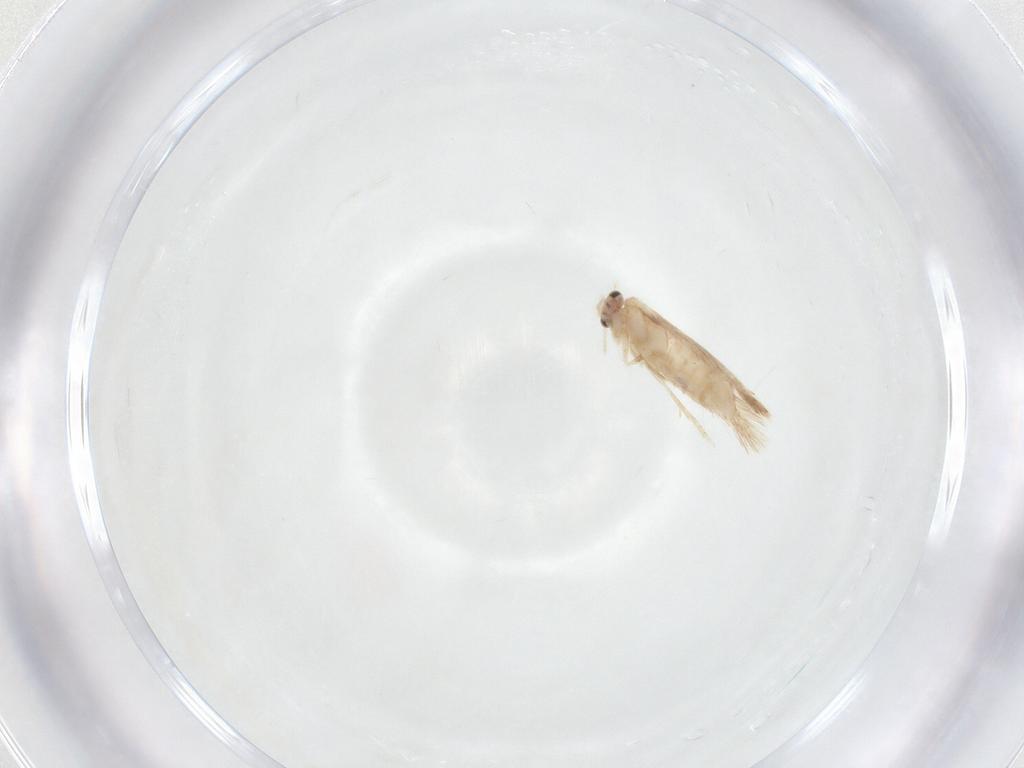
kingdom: Animalia
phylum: Arthropoda
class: Insecta
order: Lepidoptera
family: Nepticulidae
